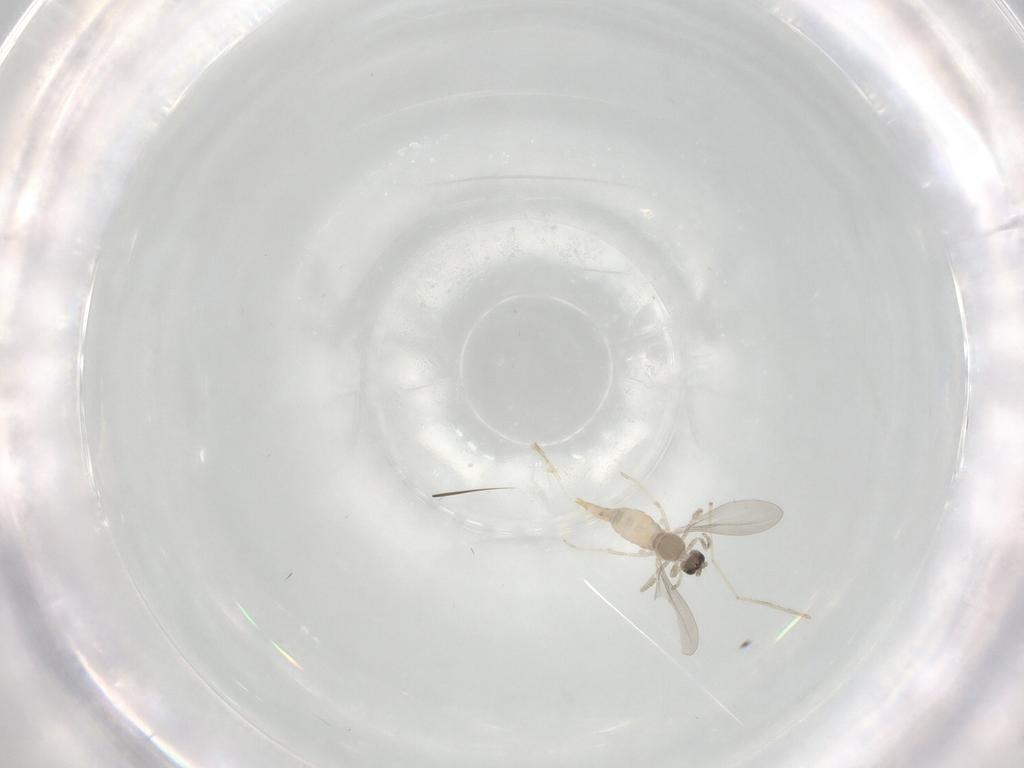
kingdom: Animalia
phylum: Arthropoda
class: Insecta
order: Diptera
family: Cecidomyiidae
